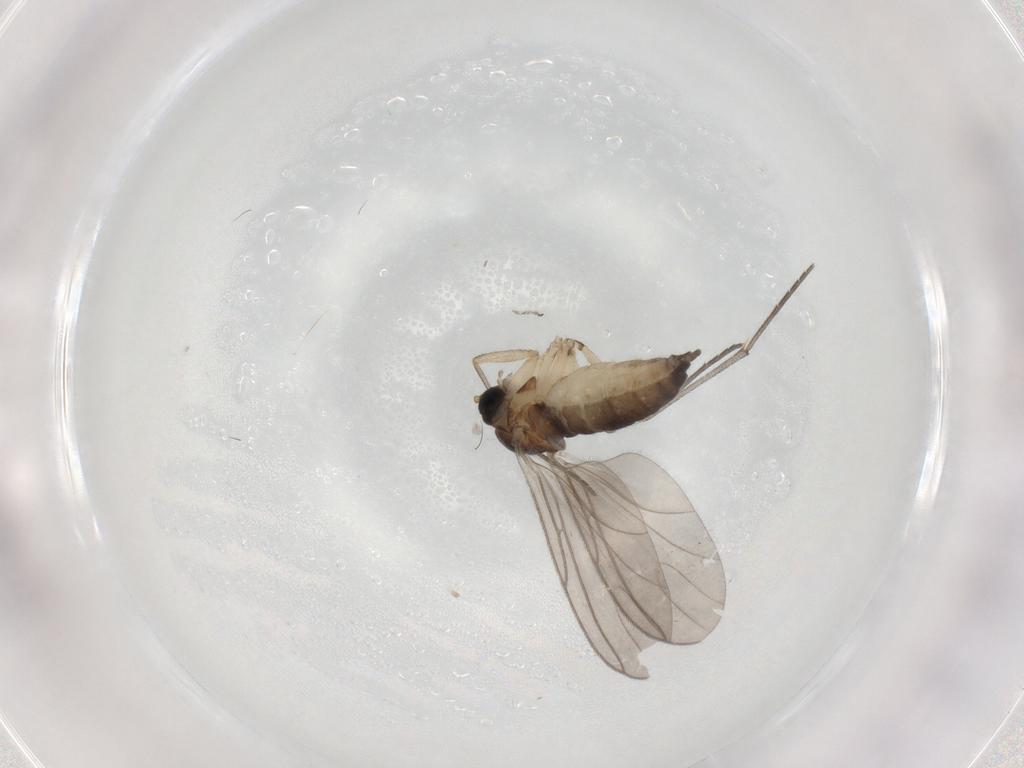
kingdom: Animalia
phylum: Arthropoda
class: Insecta
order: Diptera
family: Sciaridae
